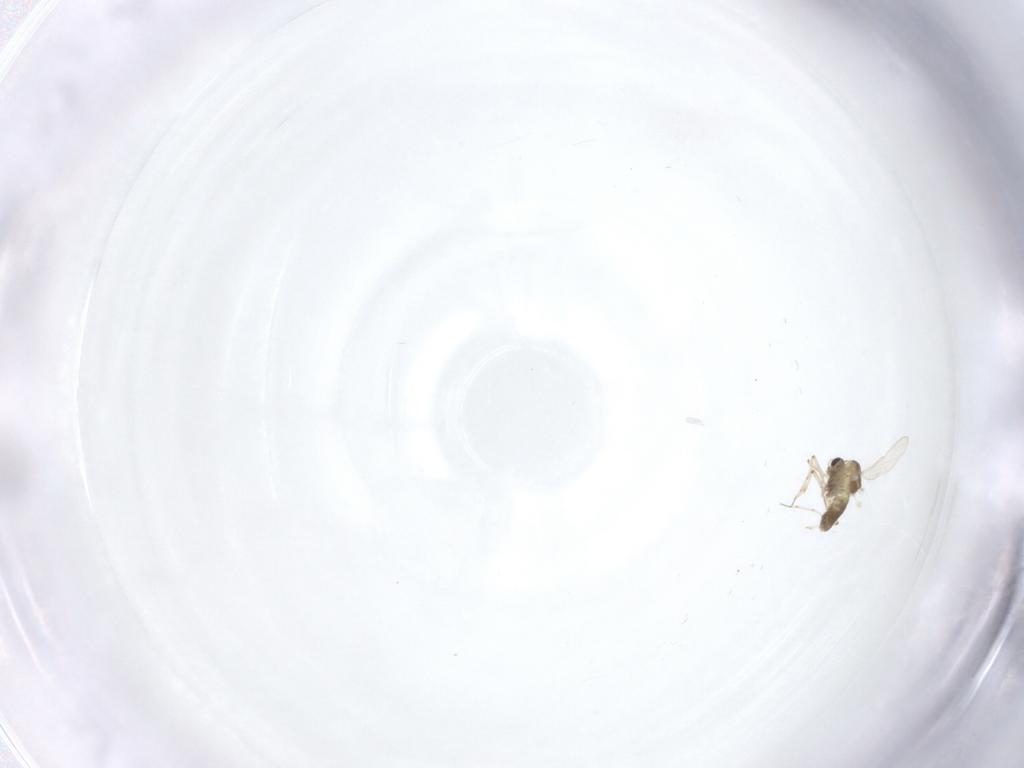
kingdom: Animalia
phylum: Arthropoda
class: Insecta
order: Diptera
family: Chironomidae
